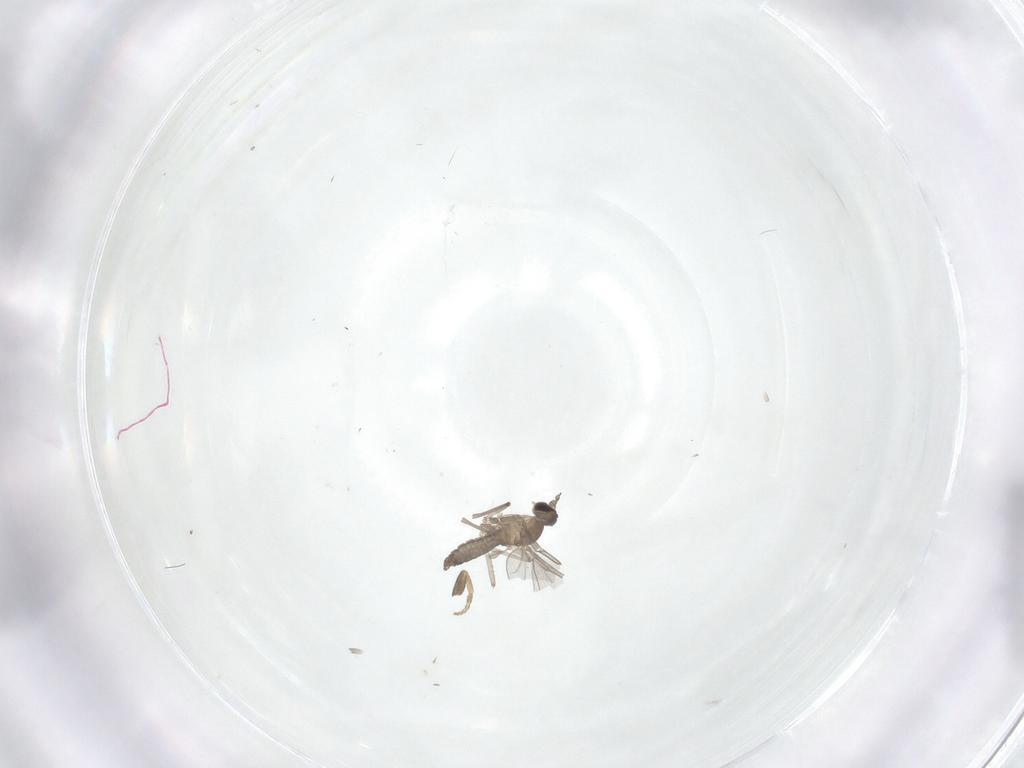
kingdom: Animalia
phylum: Arthropoda
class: Insecta
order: Diptera
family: Cecidomyiidae
